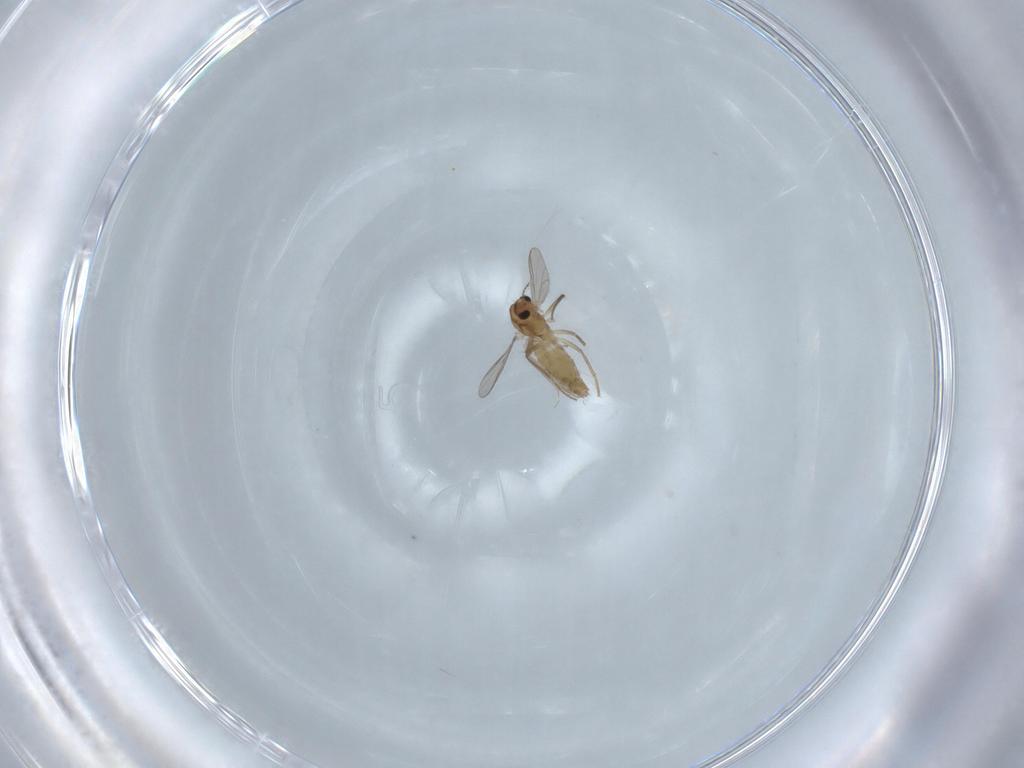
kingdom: Animalia
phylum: Arthropoda
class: Insecta
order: Diptera
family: Chironomidae
